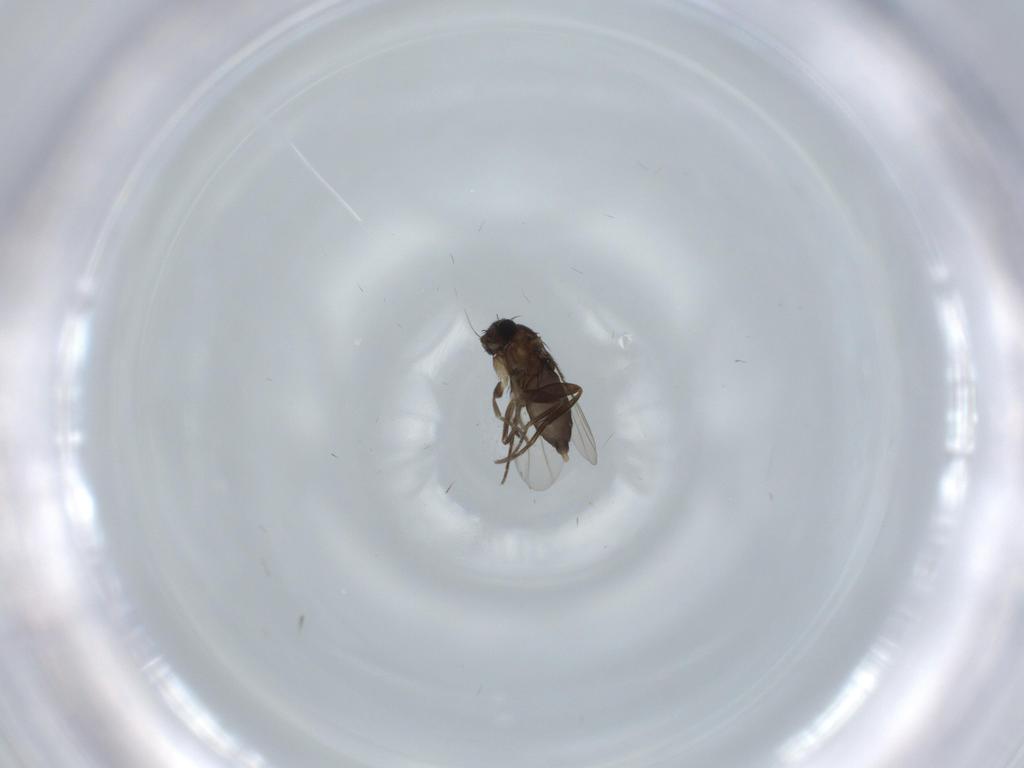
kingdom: Animalia
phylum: Arthropoda
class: Insecta
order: Diptera
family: Phoridae
